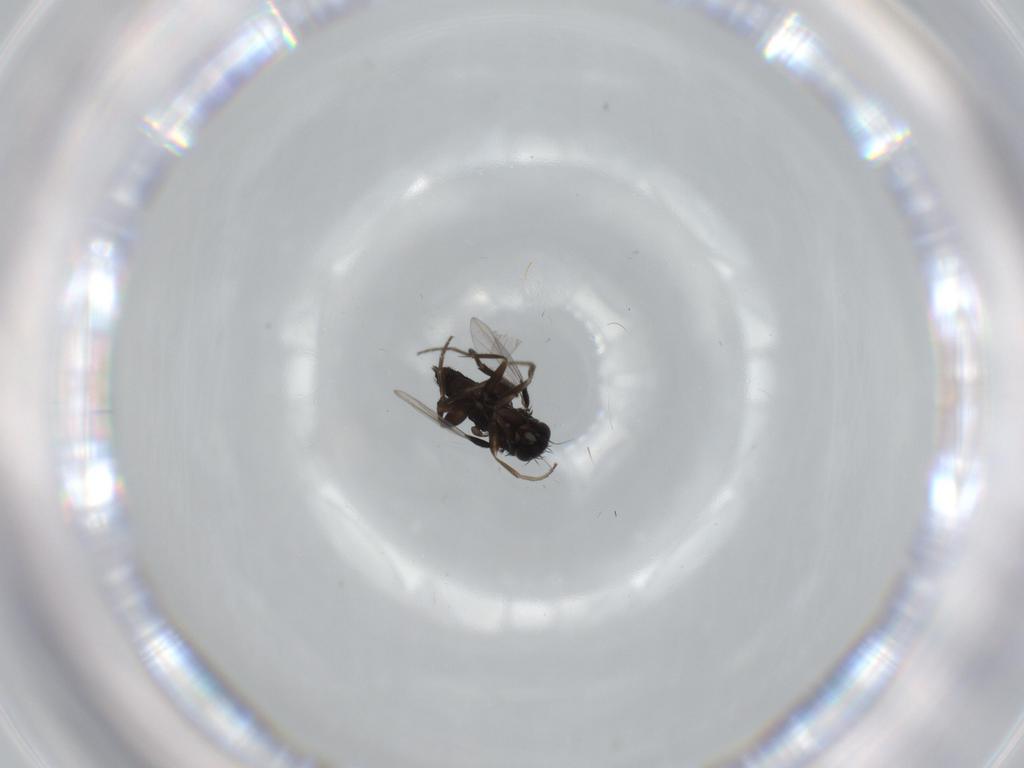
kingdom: Animalia
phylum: Arthropoda
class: Insecta
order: Diptera
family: Phoridae
